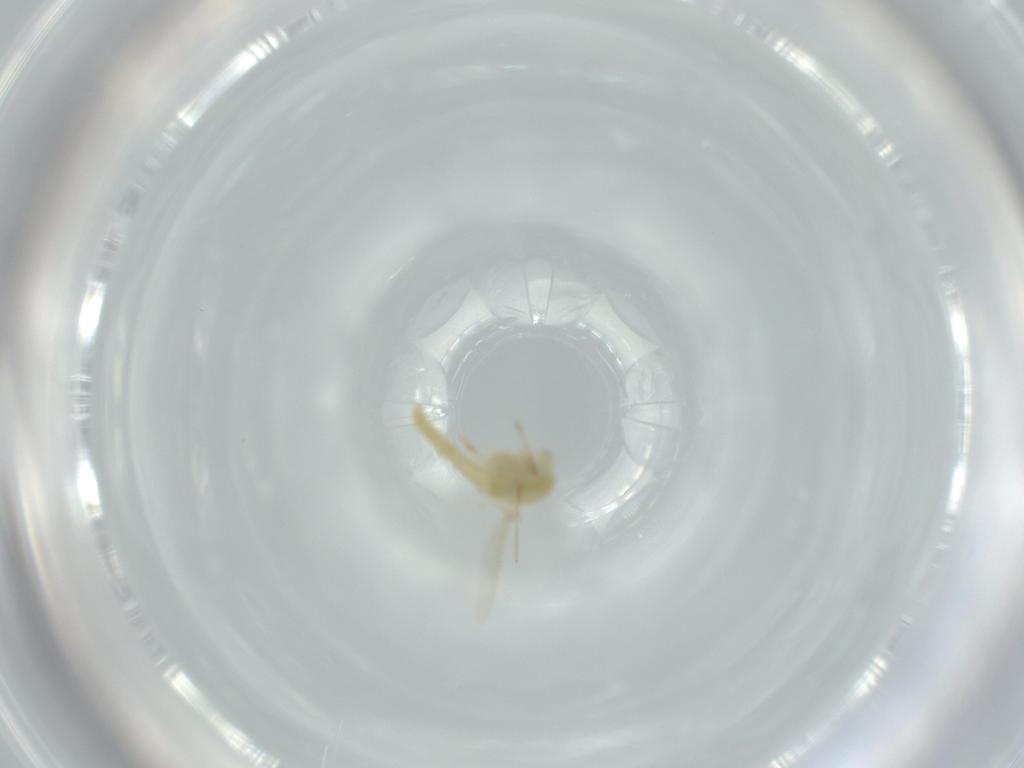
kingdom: Animalia
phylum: Arthropoda
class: Insecta
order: Diptera
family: Chironomidae
